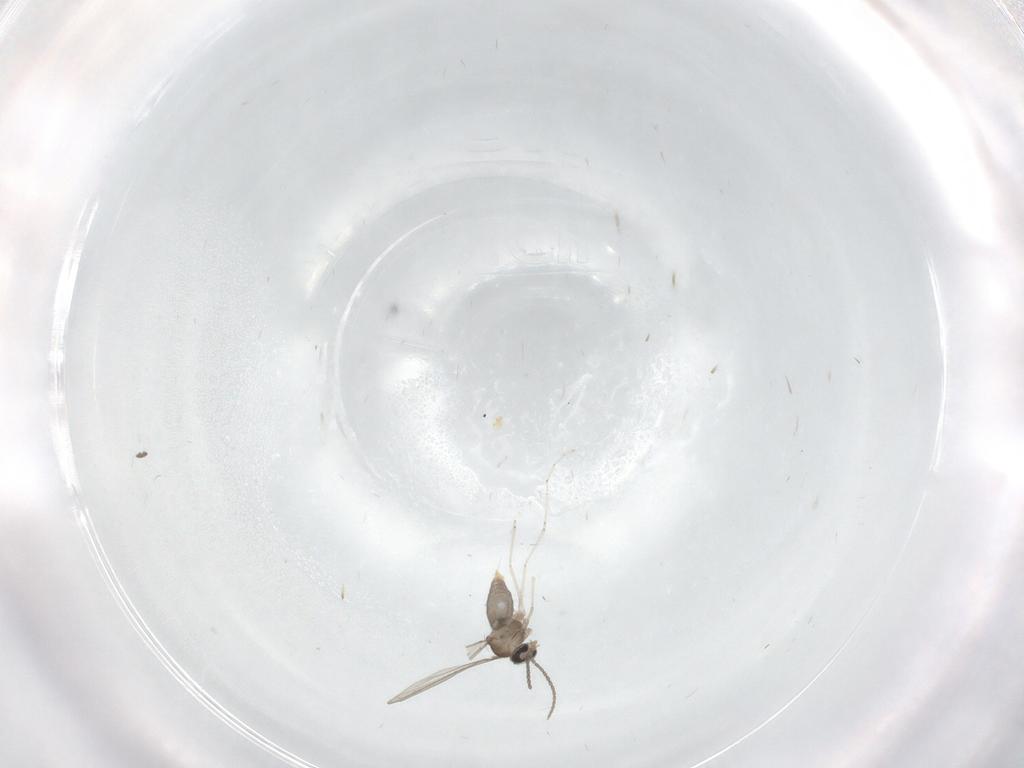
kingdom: Animalia
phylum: Arthropoda
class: Insecta
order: Diptera
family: Cecidomyiidae
